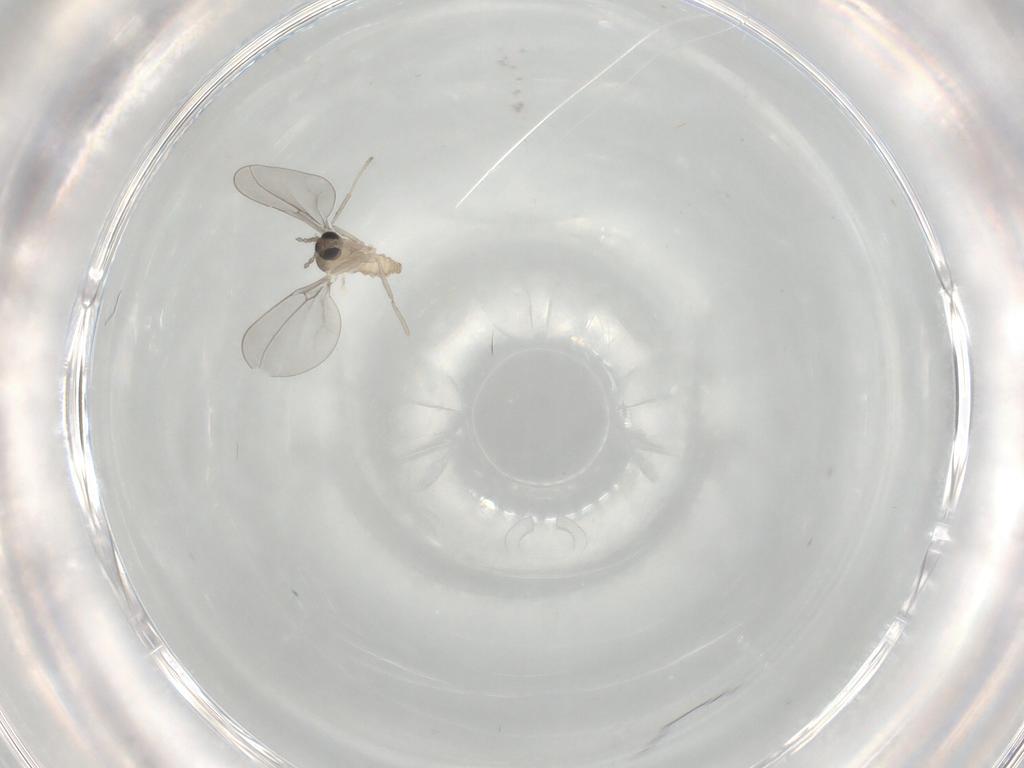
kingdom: Animalia
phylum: Arthropoda
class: Insecta
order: Diptera
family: Cecidomyiidae
